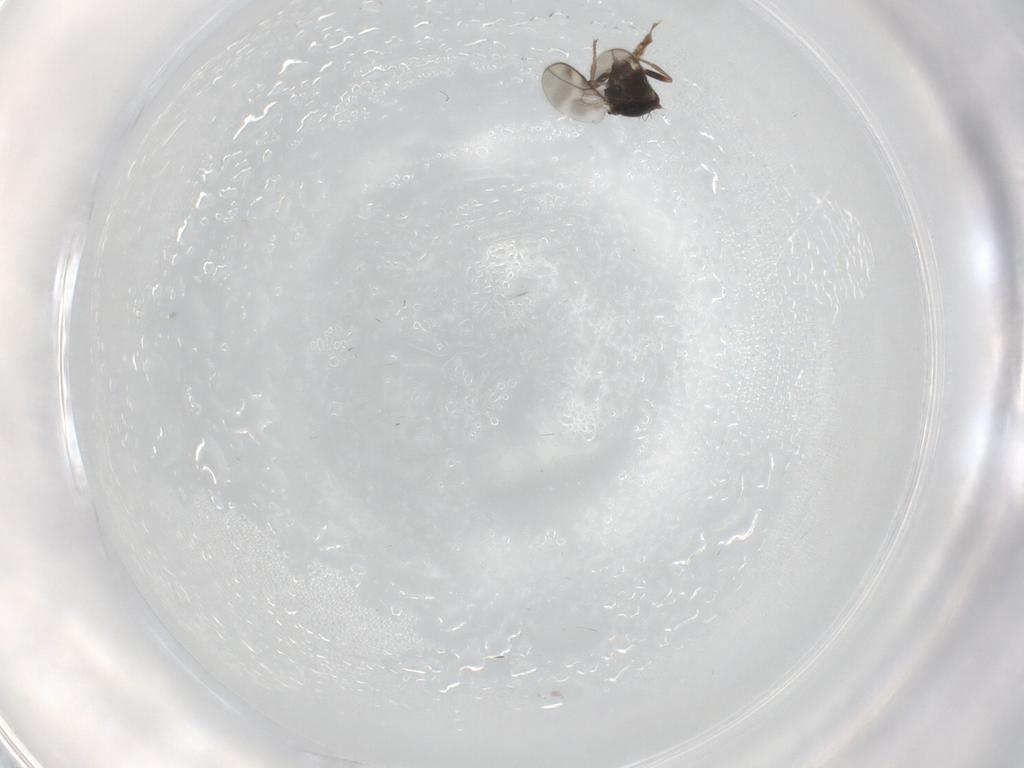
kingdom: Animalia
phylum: Arthropoda
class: Insecta
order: Diptera
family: Sphaeroceridae
